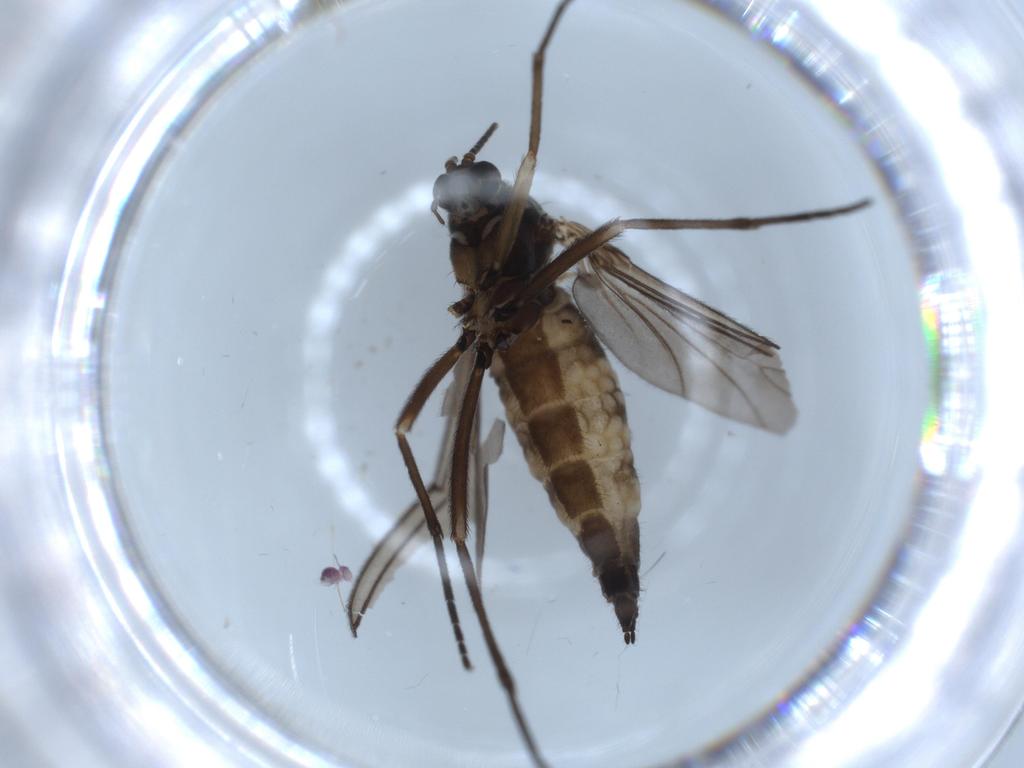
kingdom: Animalia
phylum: Arthropoda
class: Insecta
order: Diptera
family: Sciaridae
